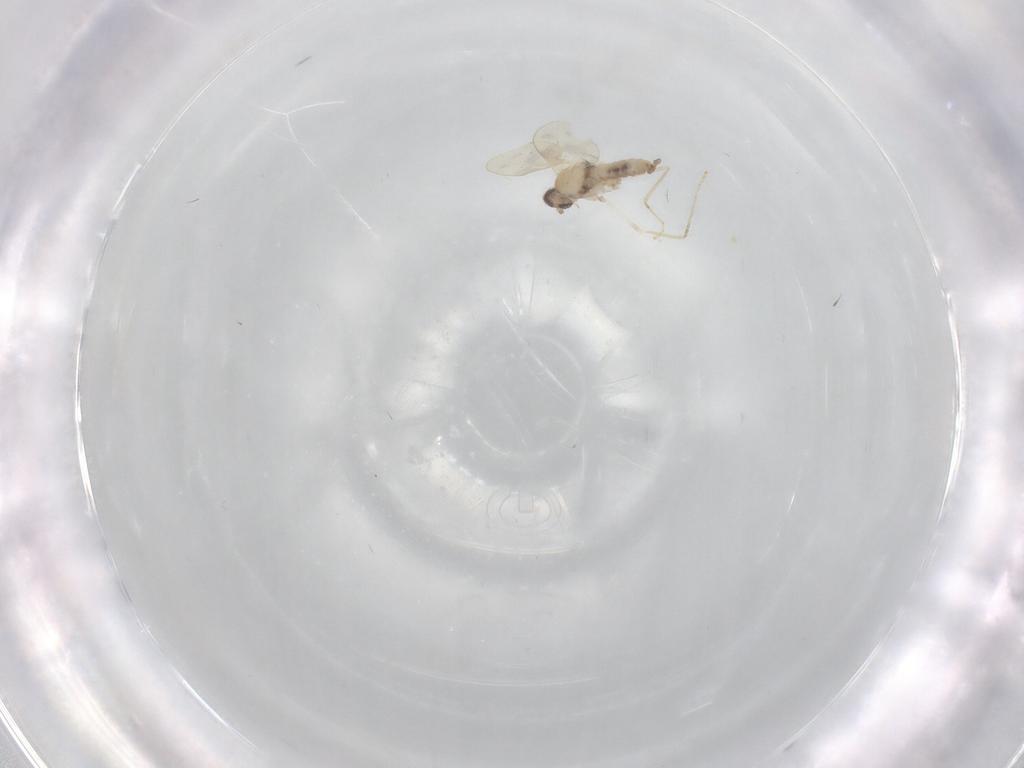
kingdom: Animalia
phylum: Arthropoda
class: Insecta
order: Diptera
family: Cecidomyiidae
